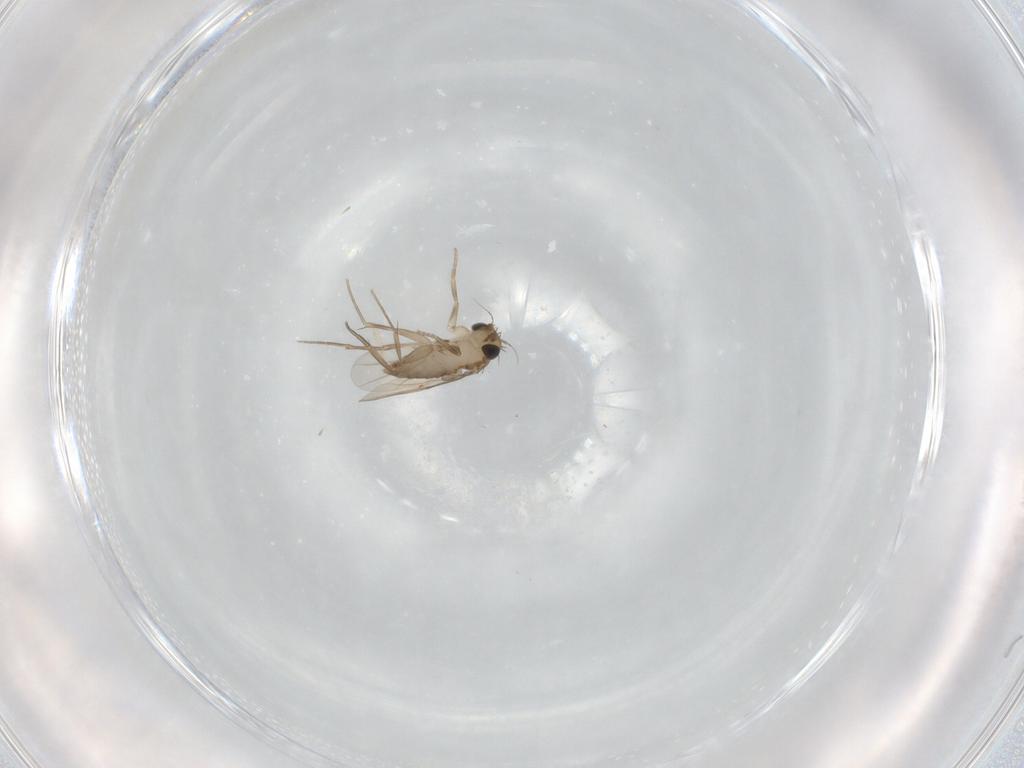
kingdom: Animalia
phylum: Arthropoda
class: Insecta
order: Diptera
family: Phoridae
